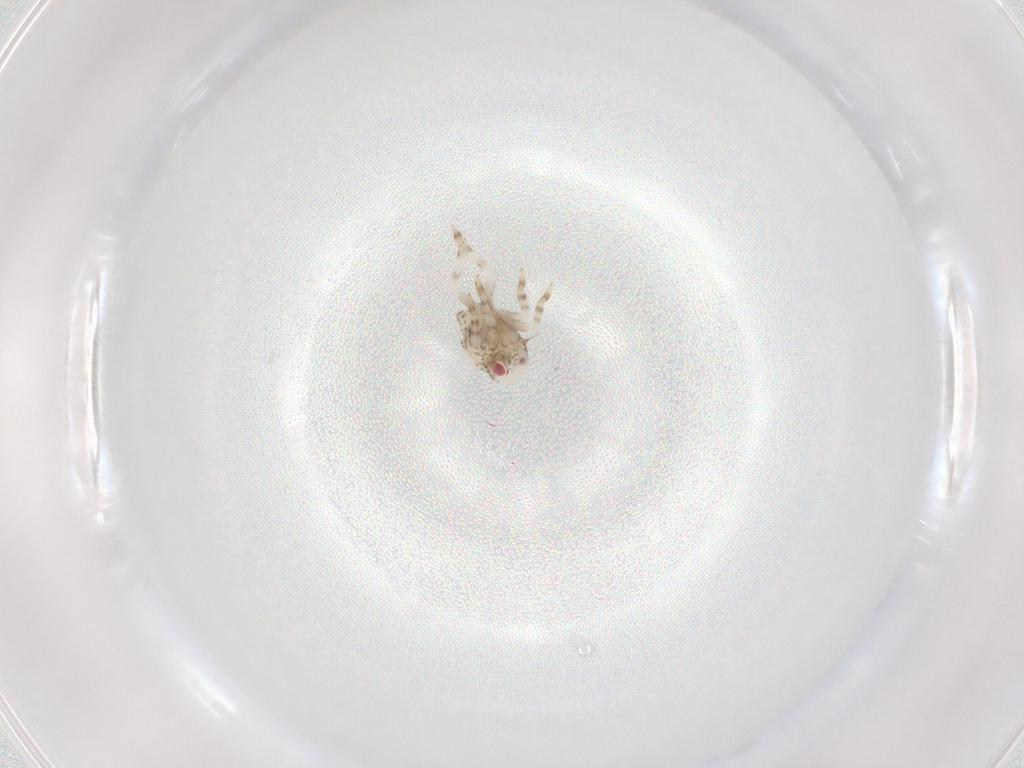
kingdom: Animalia
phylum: Arthropoda
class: Insecta
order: Hemiptera
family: Acanaloniidae
